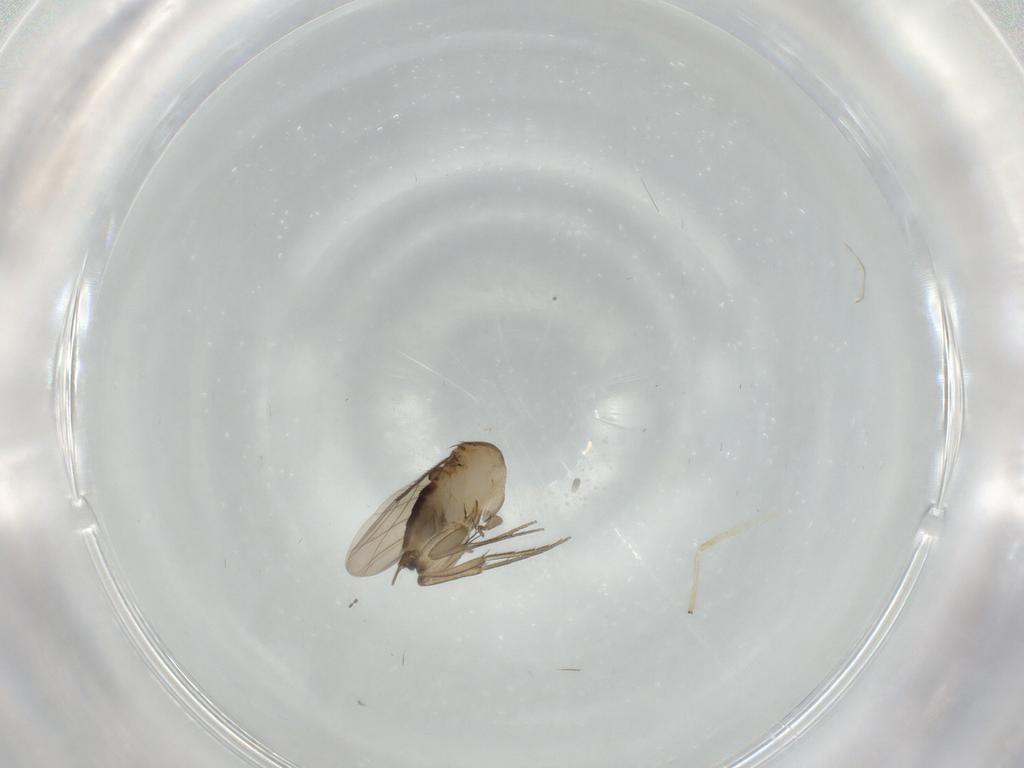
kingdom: Animalia
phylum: Arthropoda
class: Insecta
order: Diptera
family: Phoridae
